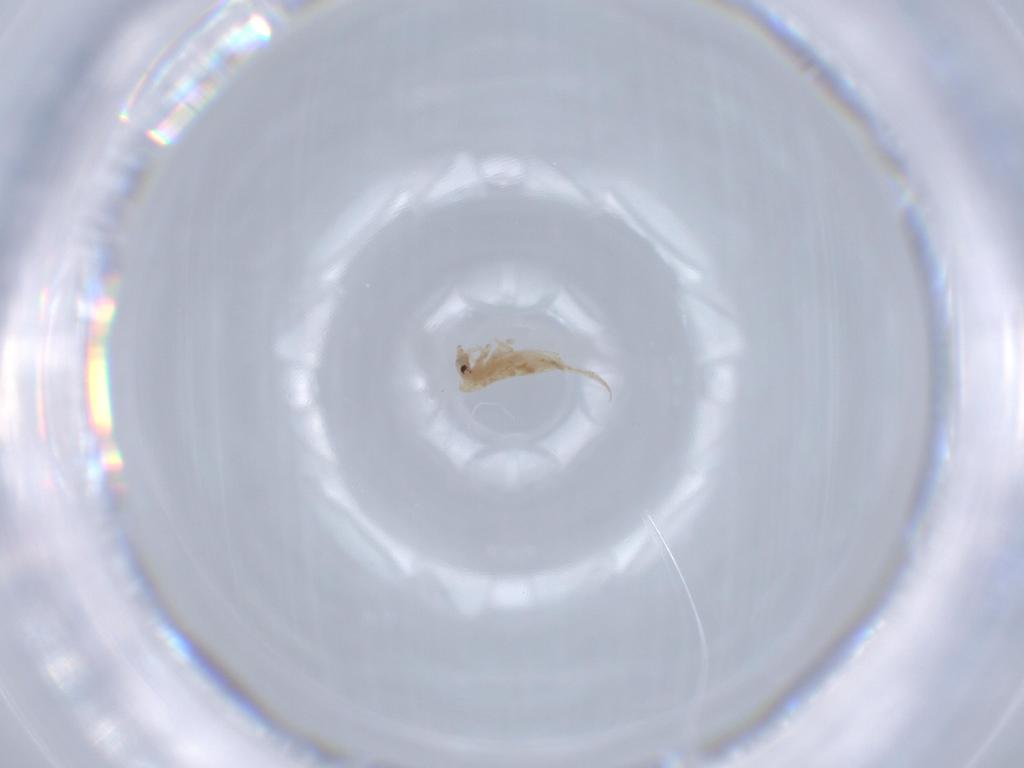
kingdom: Animalia
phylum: Arthropoda
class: Collembola
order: Entomobryomorpha
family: Entomobryidae
